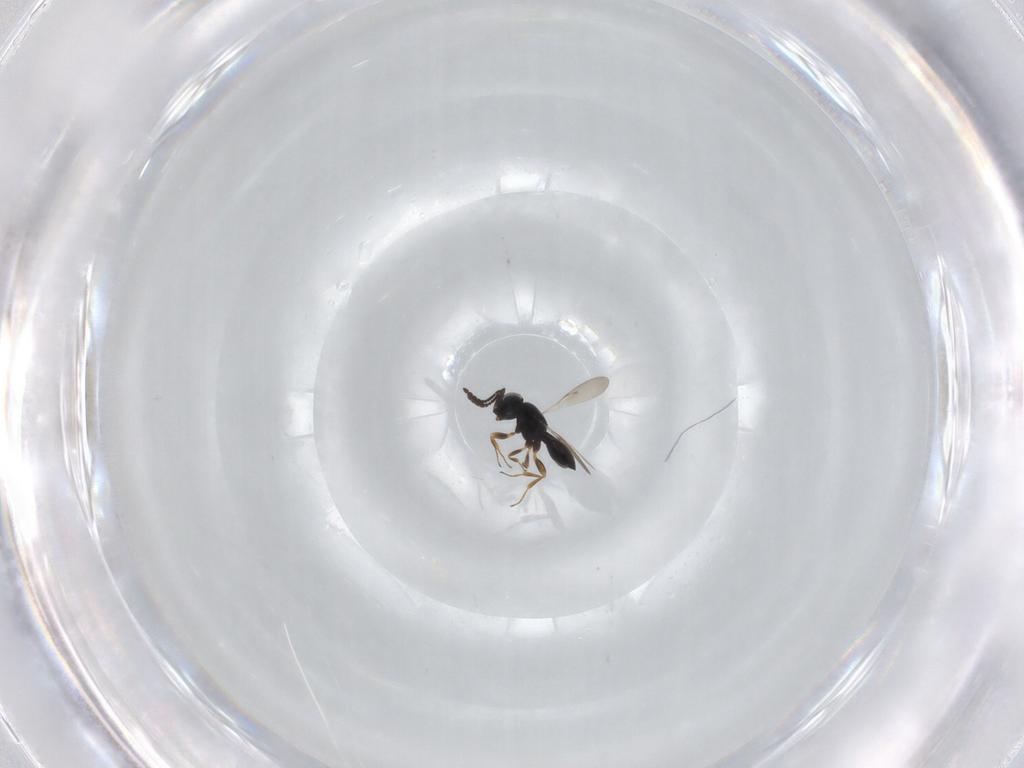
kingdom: Animalia
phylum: Arthropoda
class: Insecta
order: Hymenoptera
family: Scelionidae
